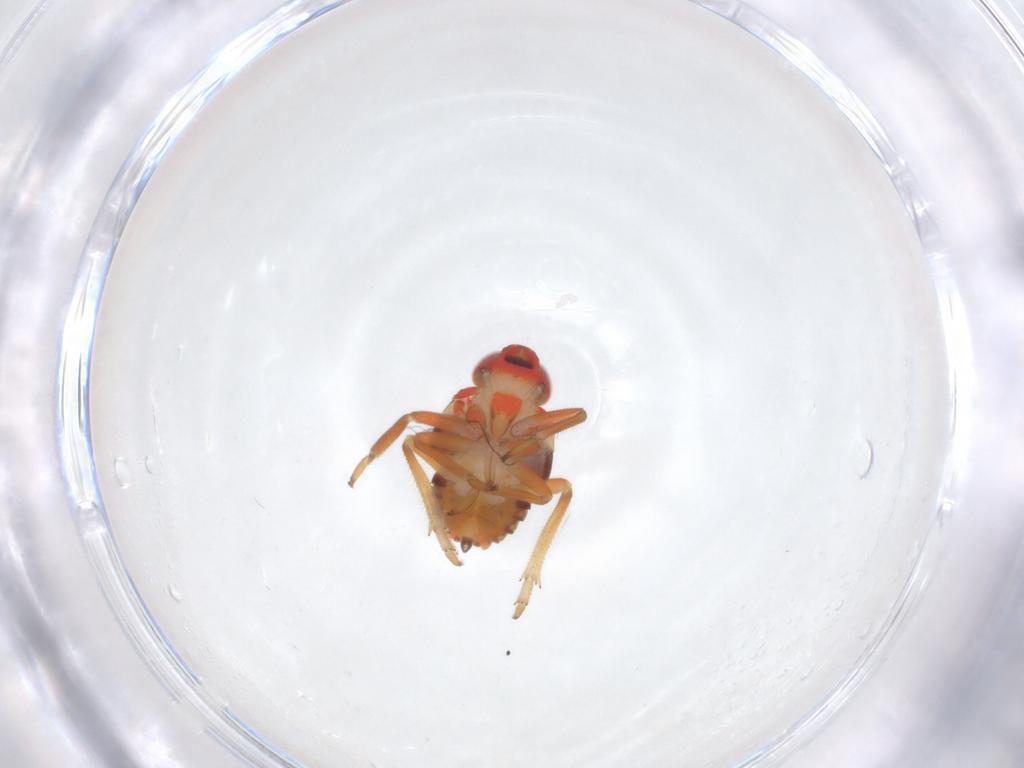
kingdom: Animalia
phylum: Arthropoda
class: Insecta
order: Hemiptera
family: Issidae
